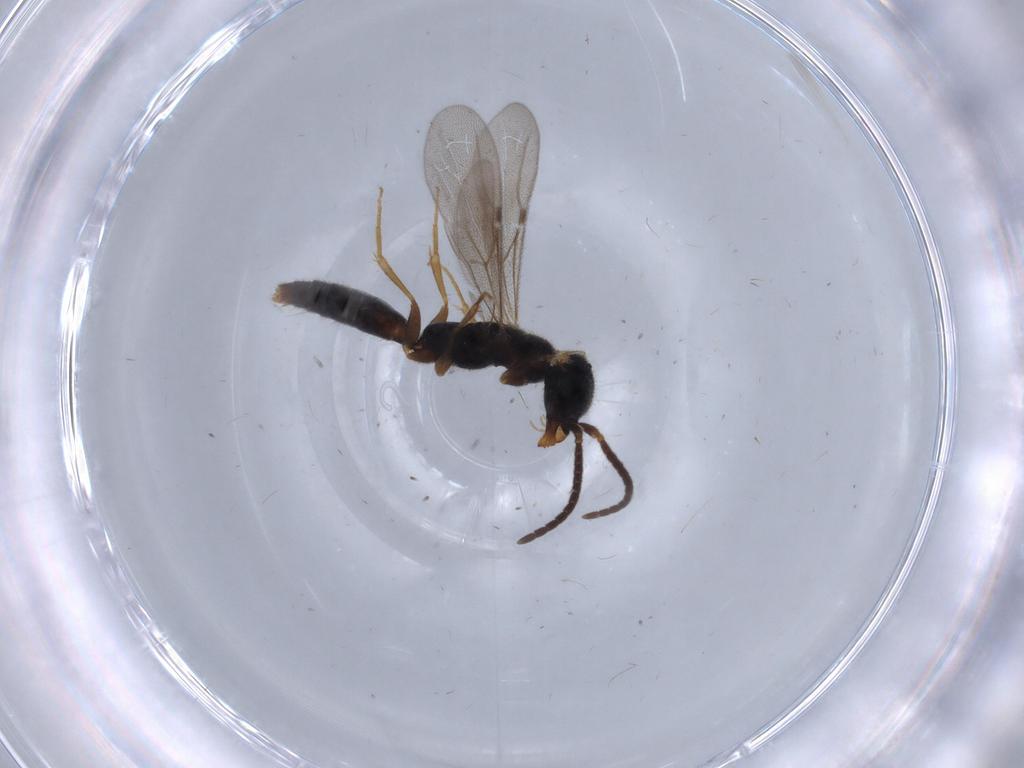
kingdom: Animalia
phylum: Arthropoda
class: Insecta
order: Hymenoptera
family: Bethylidae
